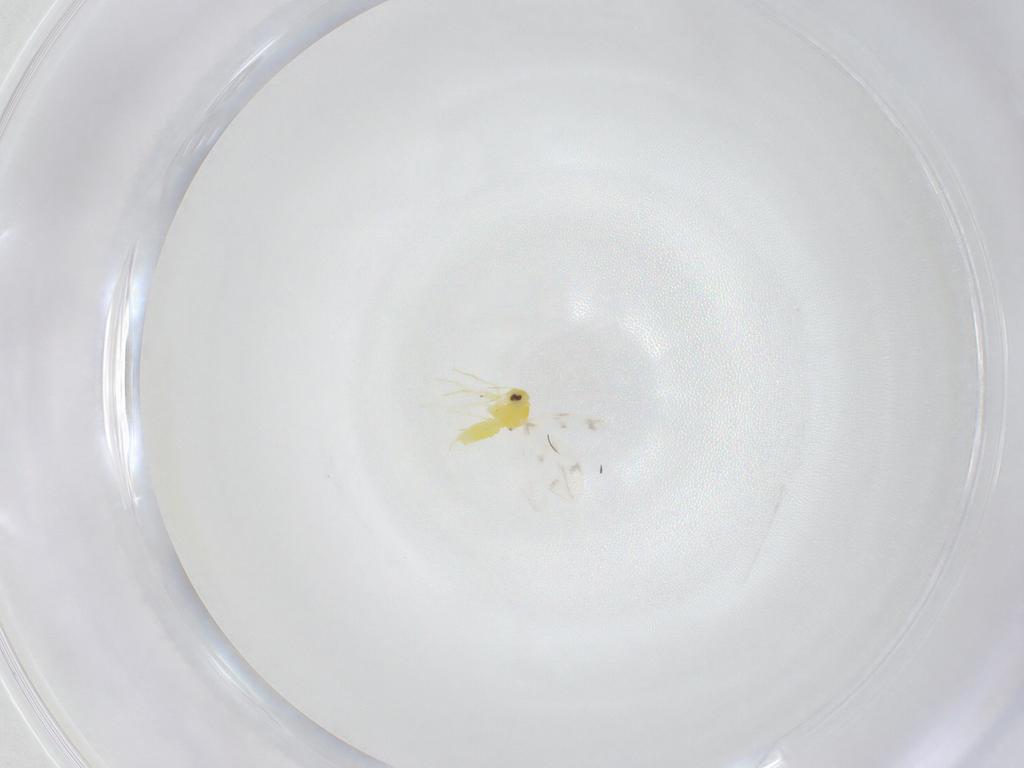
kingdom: Animalia
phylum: Arthropoda
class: Insecta
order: Hemiptera
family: Aleyrodidae
